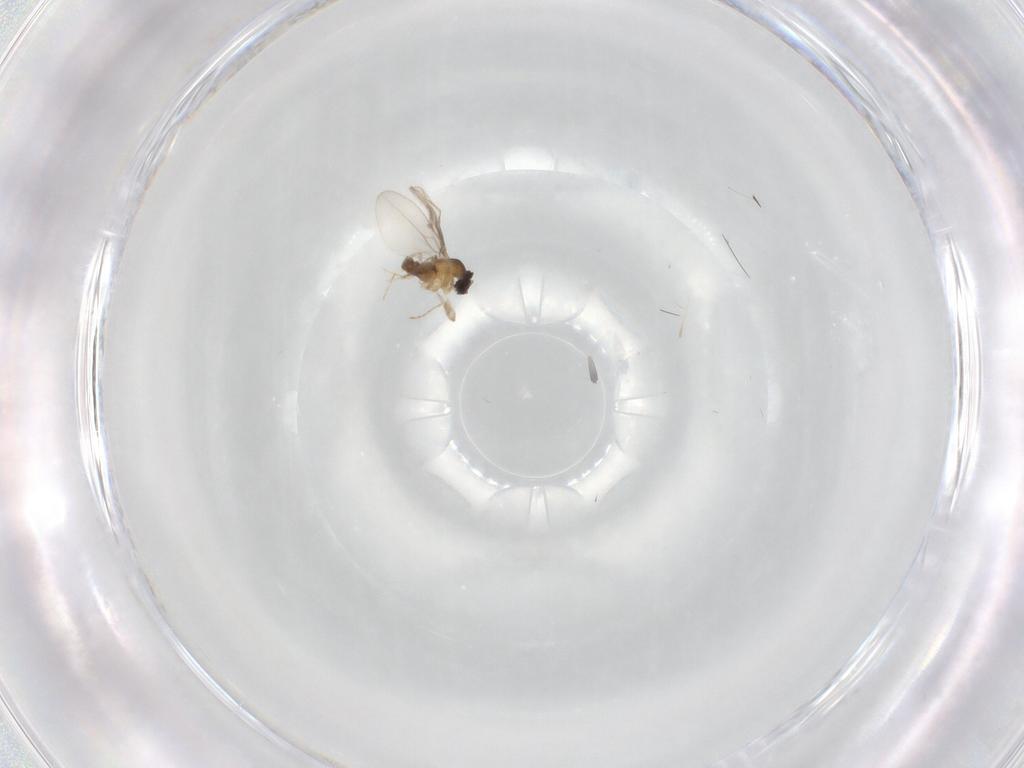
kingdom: Animalia
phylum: Arthropoda
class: Insecta
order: Diptera
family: Cecidomyiidae
